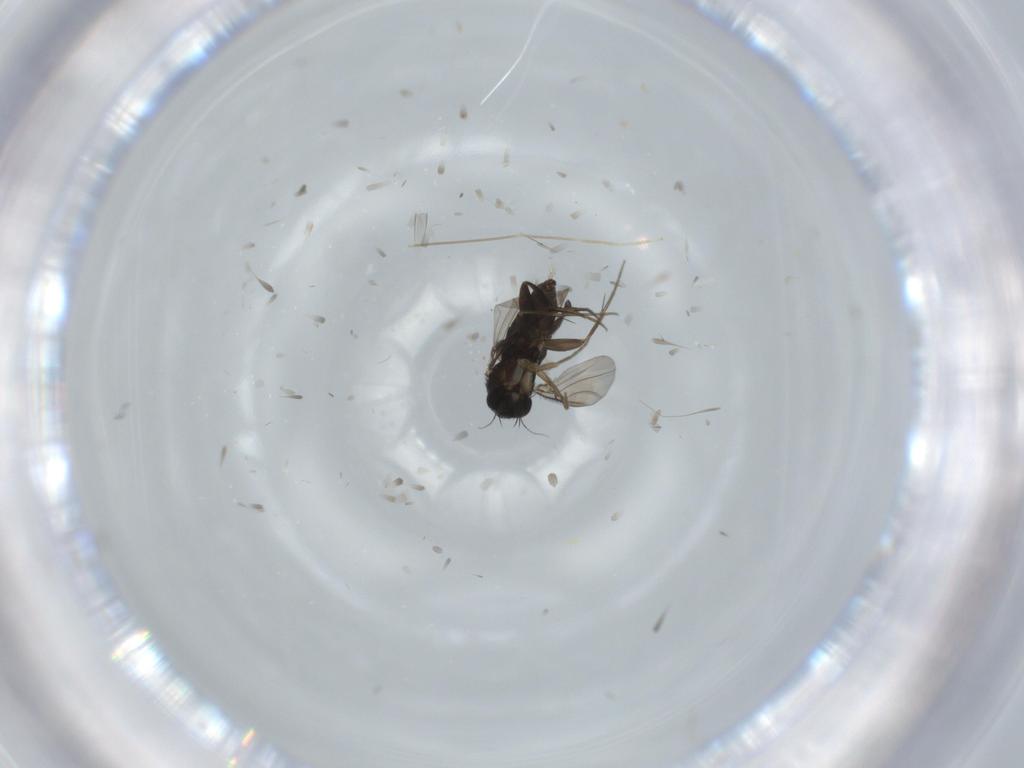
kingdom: Animalia
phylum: Arthropoda
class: Insecta
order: Diptera
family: Phoridae
